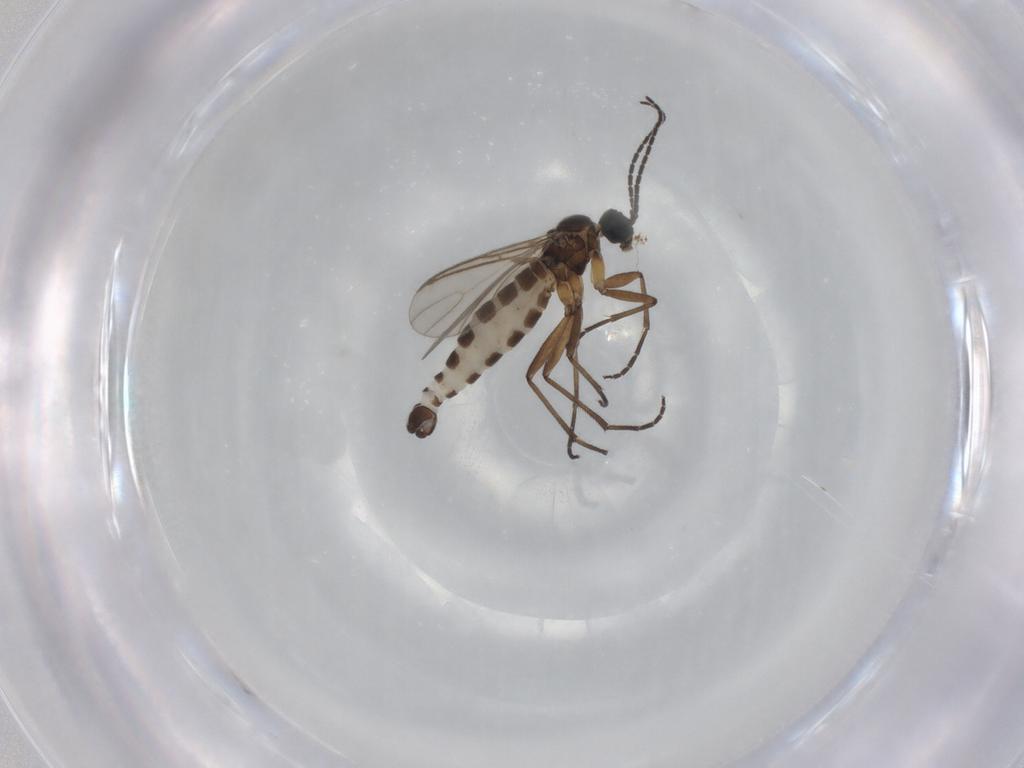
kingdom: Animalia
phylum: Arthropoda
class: Insecta
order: Diptera
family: Sciaridae
